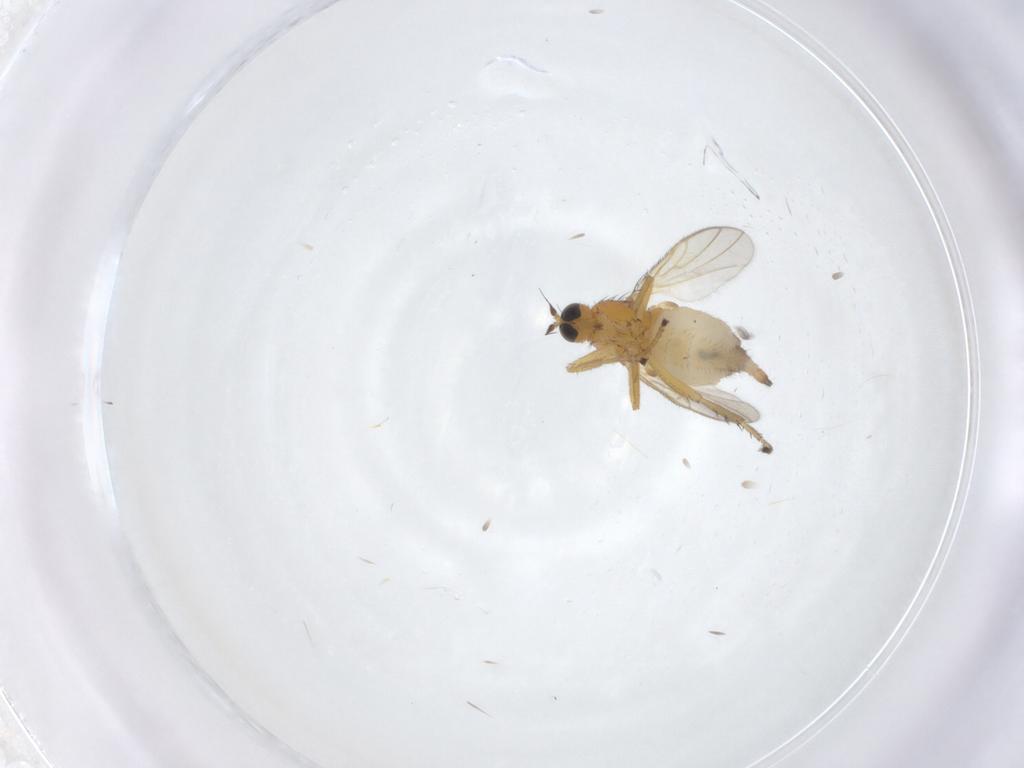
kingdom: Animalia
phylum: Arthropoda
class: Insecta
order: Diptera
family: Hybotidae
